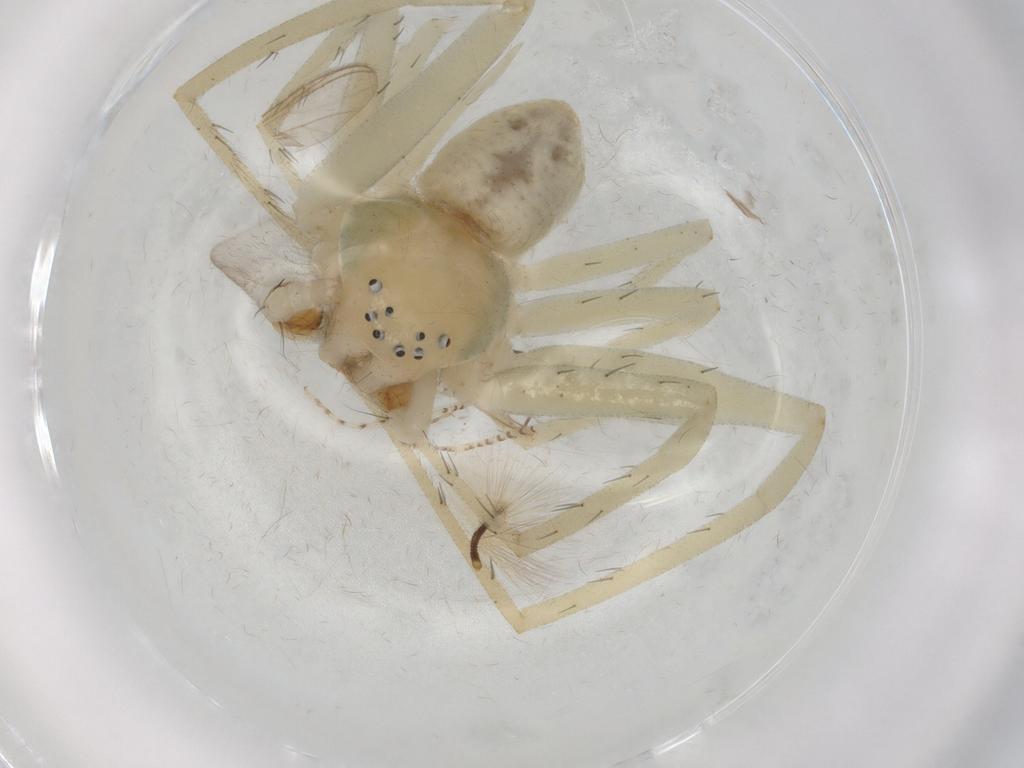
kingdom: Animalia
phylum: Arthropoda
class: Arachnida
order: Araneae
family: Philodromidae
